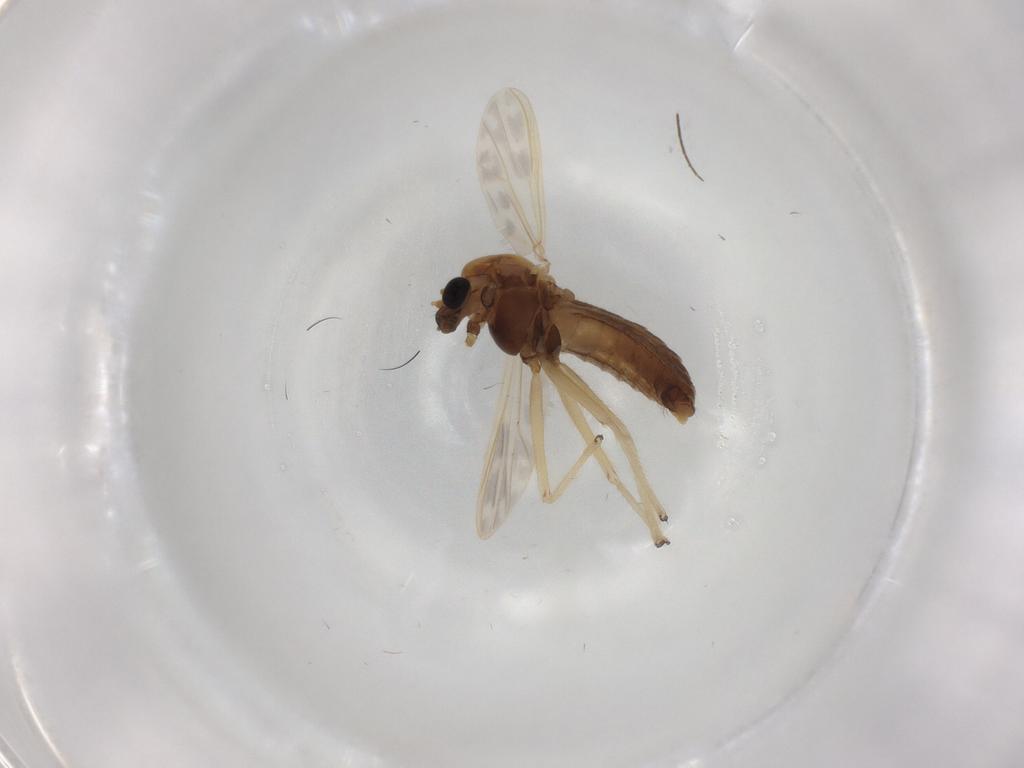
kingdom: Animalia
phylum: Arthropoda
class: Insecta
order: Diptera
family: Chironomidae
